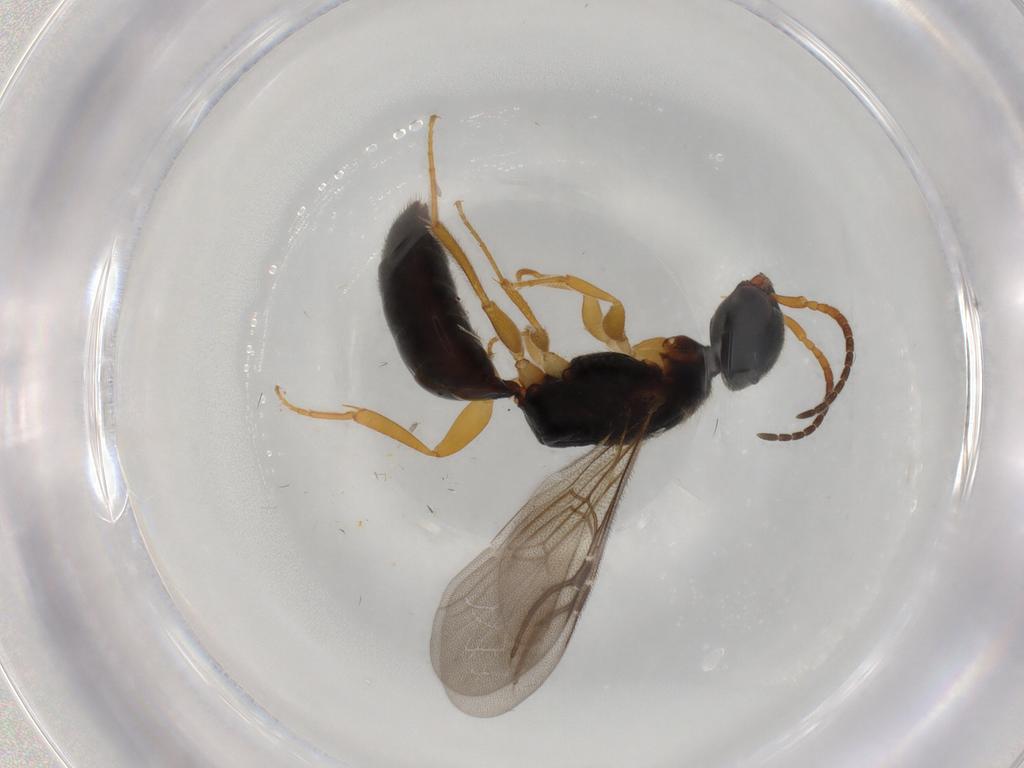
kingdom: Animalia
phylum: Arthropoda
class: Insecta
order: Hymenoptera
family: Bethylidae
